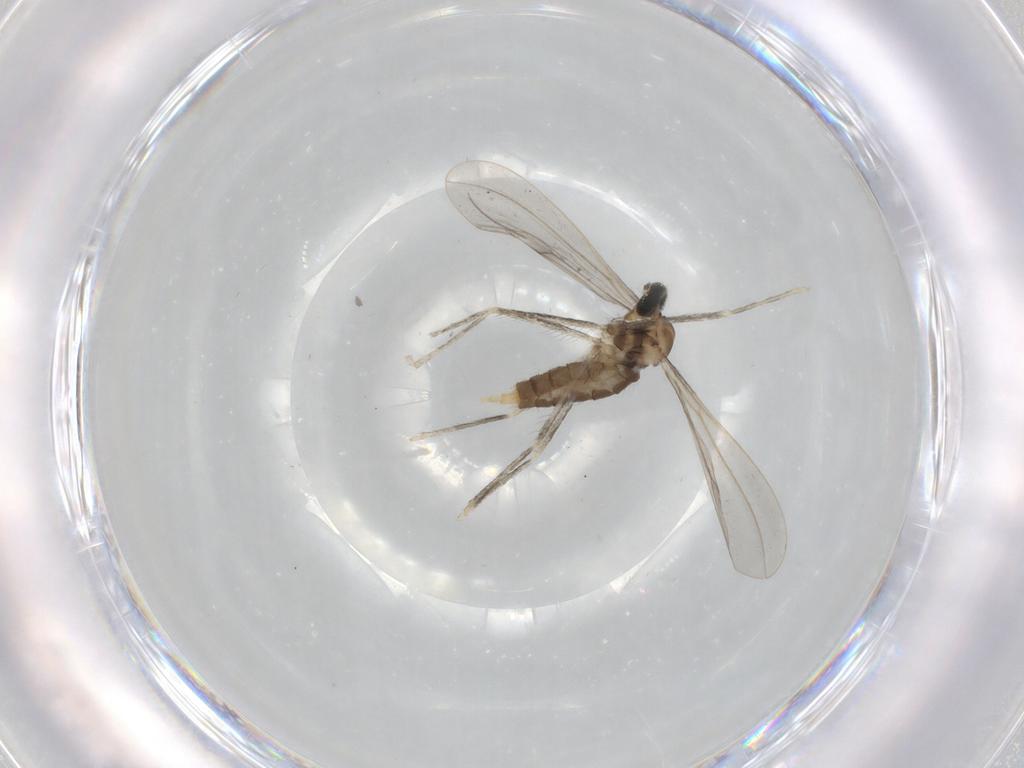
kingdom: Animalia
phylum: Arthropoda
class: Insecta
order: Diptera
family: Cecidomyiidae
